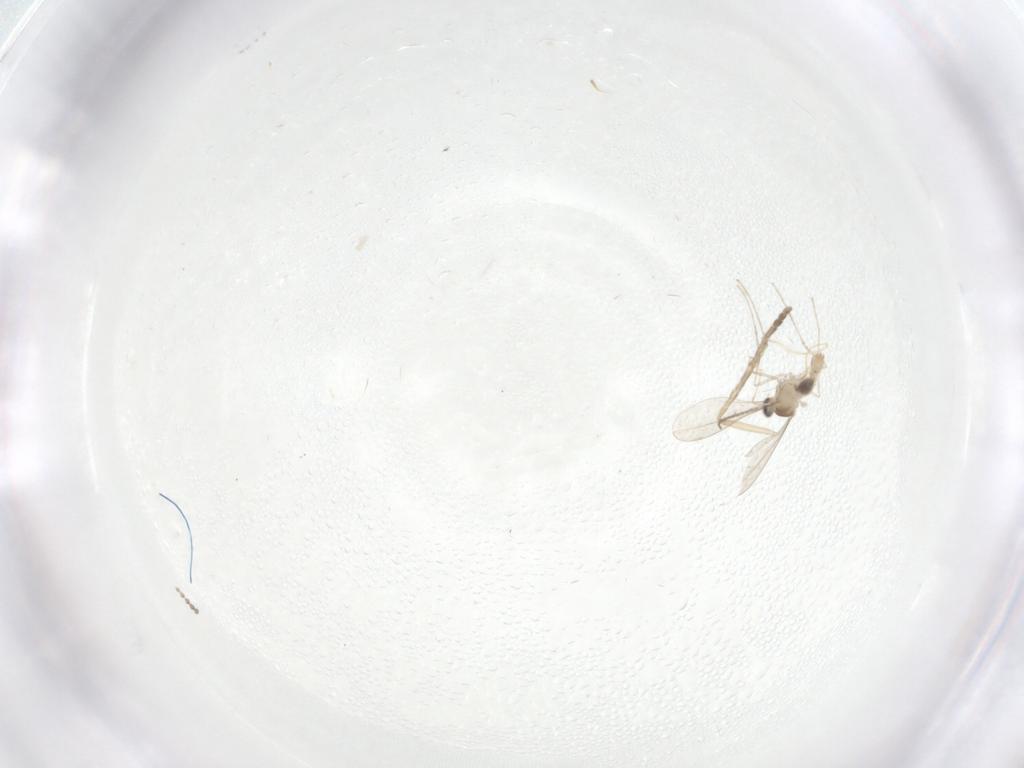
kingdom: Animalia
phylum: Arthropoda
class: Insecta
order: Diptera
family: Cecidomyiidae
